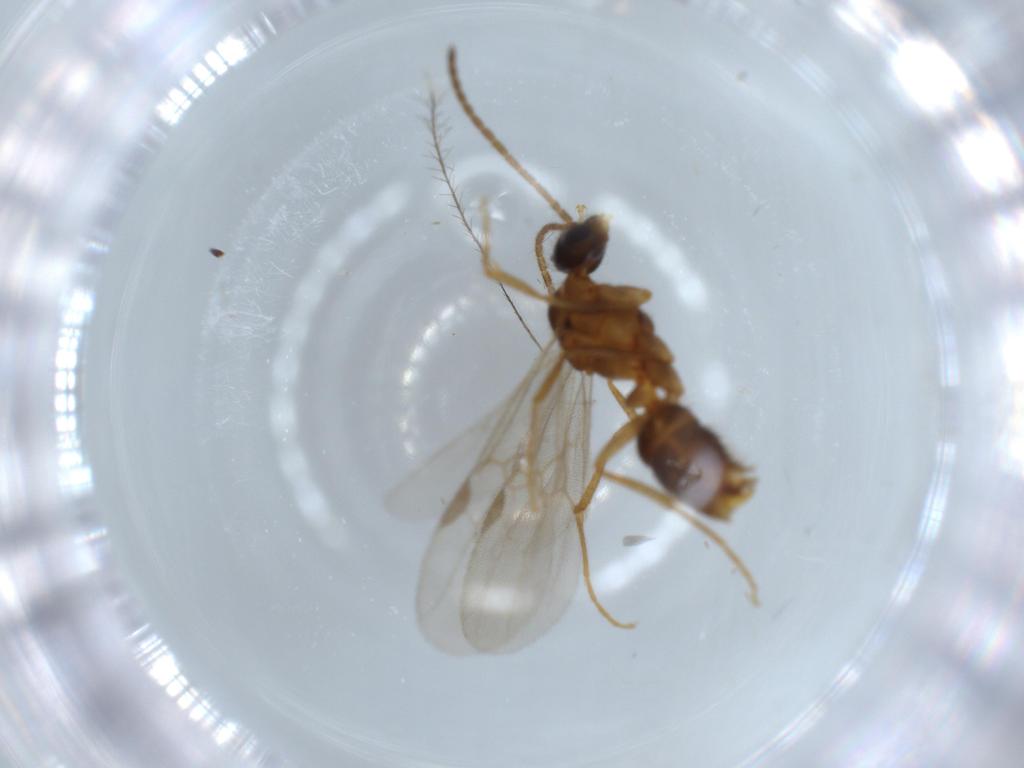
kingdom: Animalia
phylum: Arthropoda
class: Insecta
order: Hymenoptera
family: Formicidae
